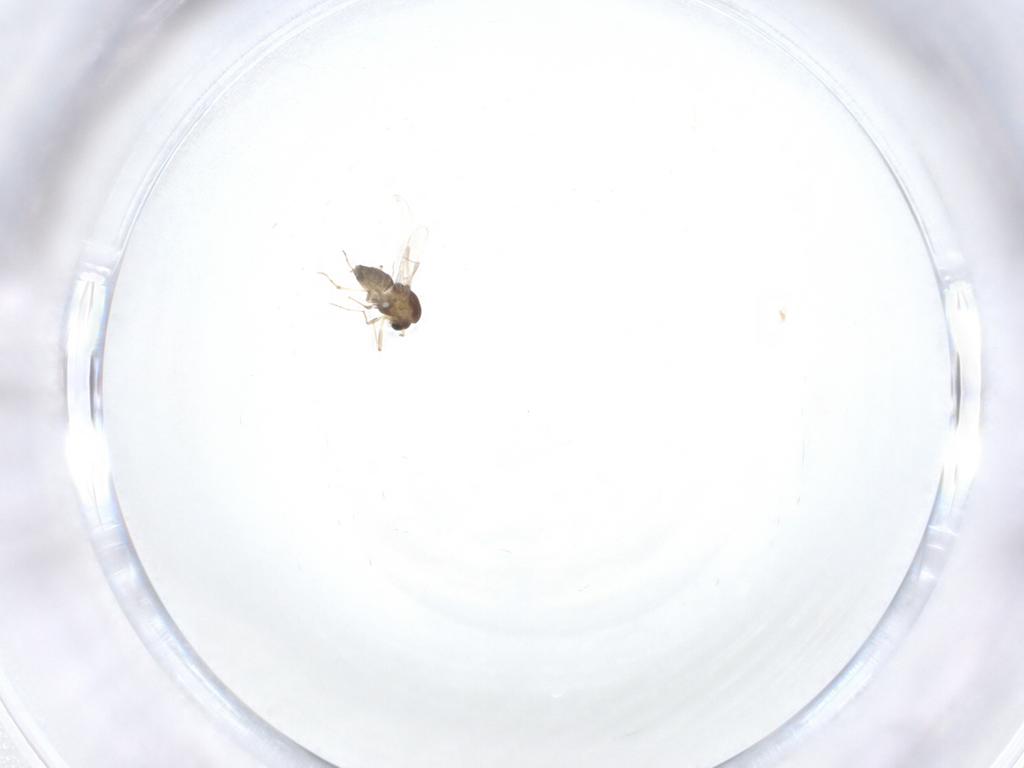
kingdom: Animalia
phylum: Arthropoda
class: Insecta
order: Diptera
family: Chironomidae
